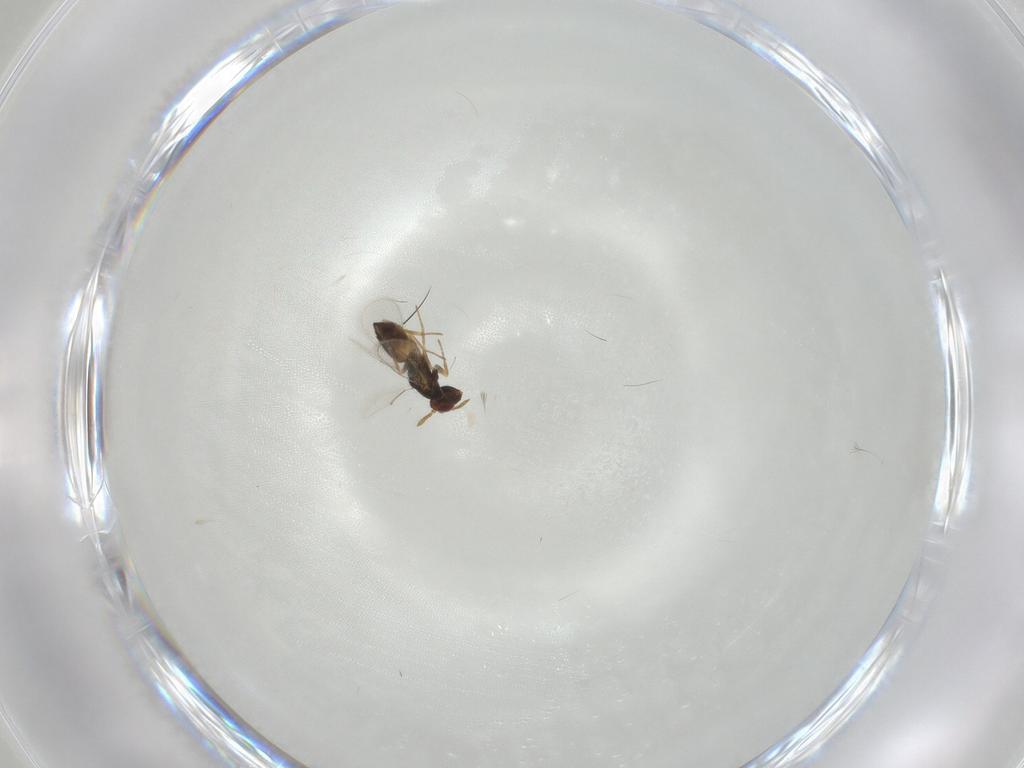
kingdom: Animalia
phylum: Arthropoda
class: Insecta
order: Hymenoptera
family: Eulophidae
